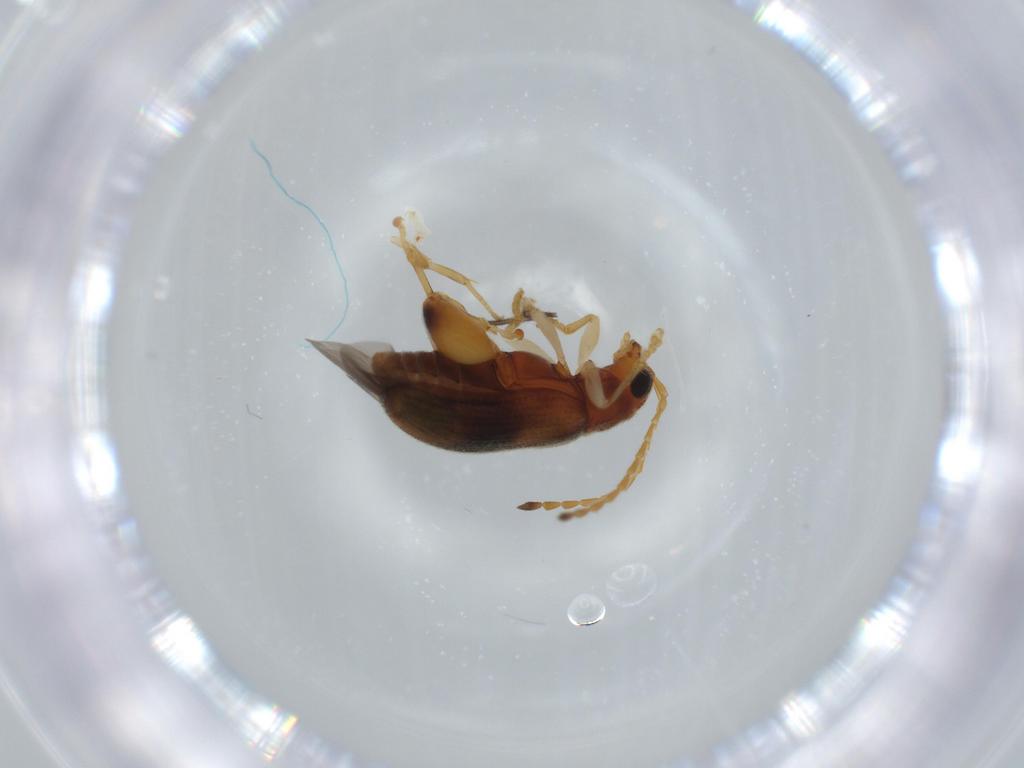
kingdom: Animalia
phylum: Arthropoda
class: Insecta
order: Coleoptera
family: Chrysomelidae
